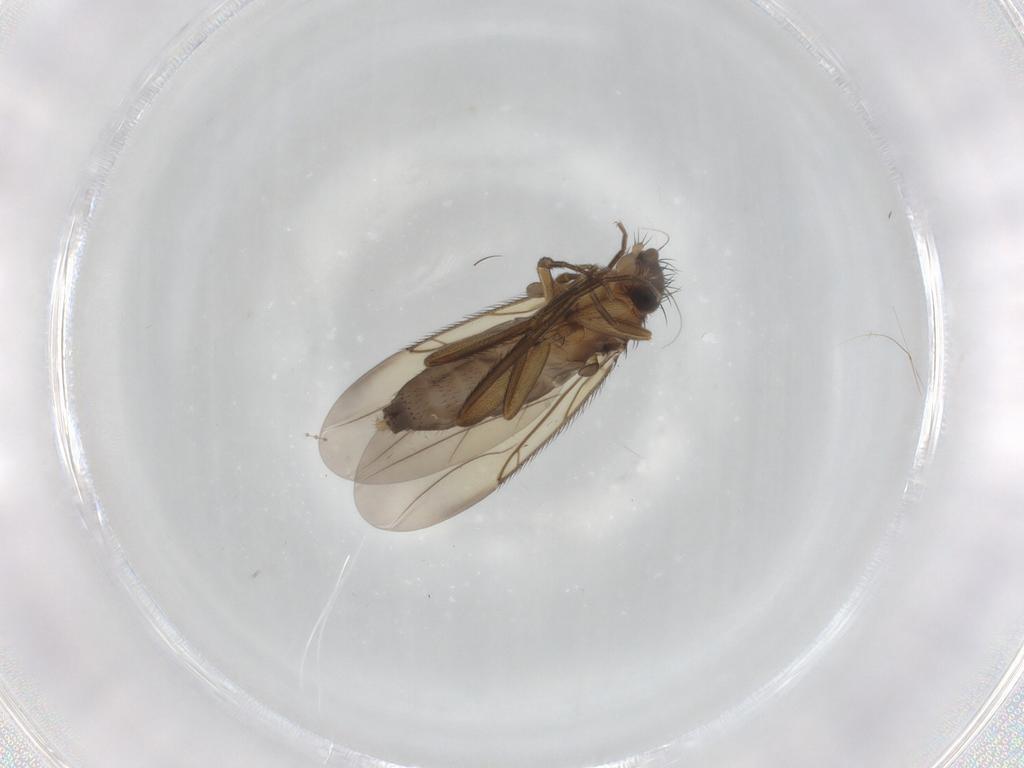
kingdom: Animalia
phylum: Arthropoda
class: Insecta
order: Diptera
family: Phoridae
